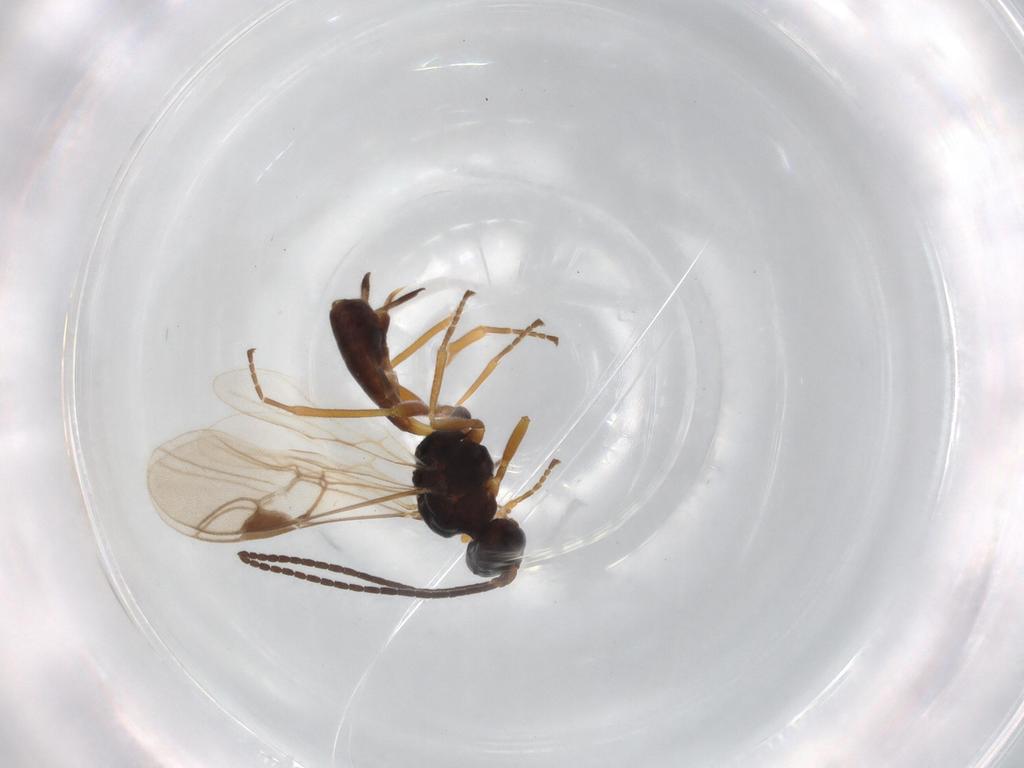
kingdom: Animalia
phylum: Arthropoda
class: Insecta
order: Hymenoptera
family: Braconidae
